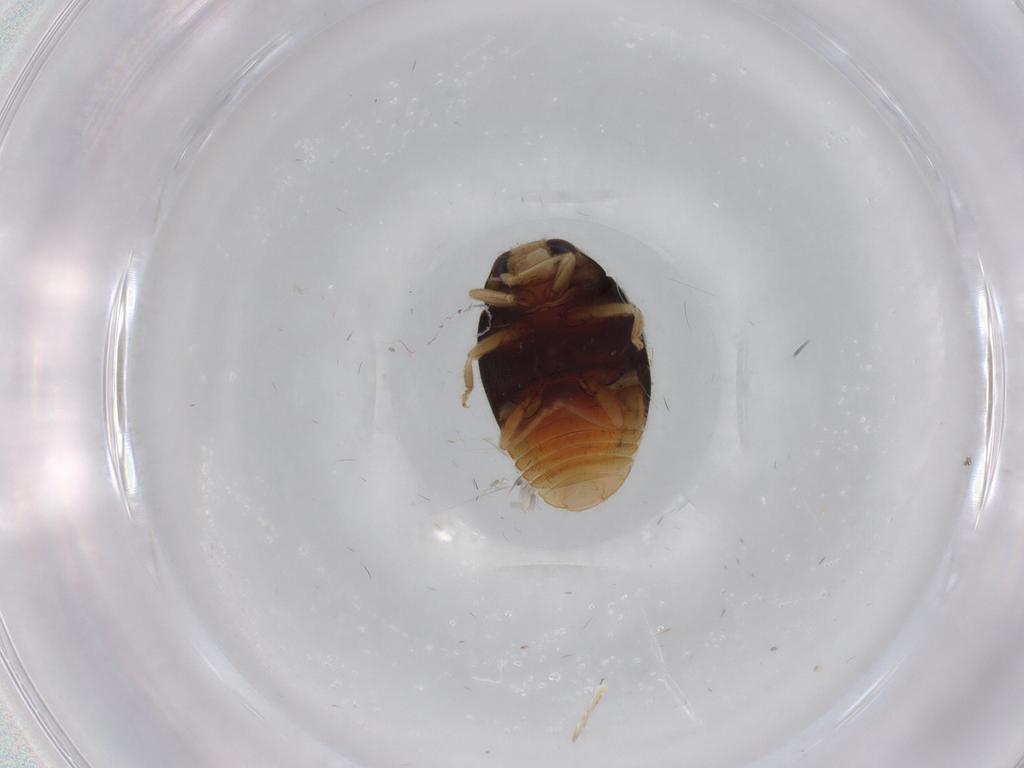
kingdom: Animalia
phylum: Arthropoda
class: Insecta
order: Coleoptera
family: Coccinellidae
